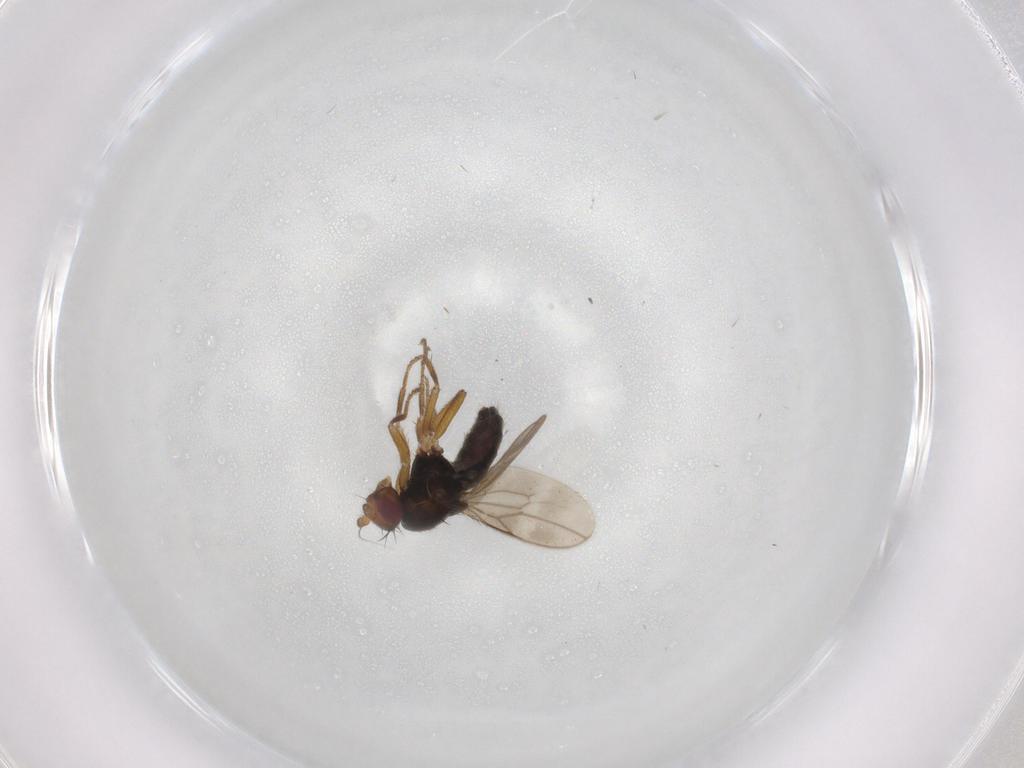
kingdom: Animalia
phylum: Arthropoda
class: Insecta
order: Diptera
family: Sphaeroceridae
